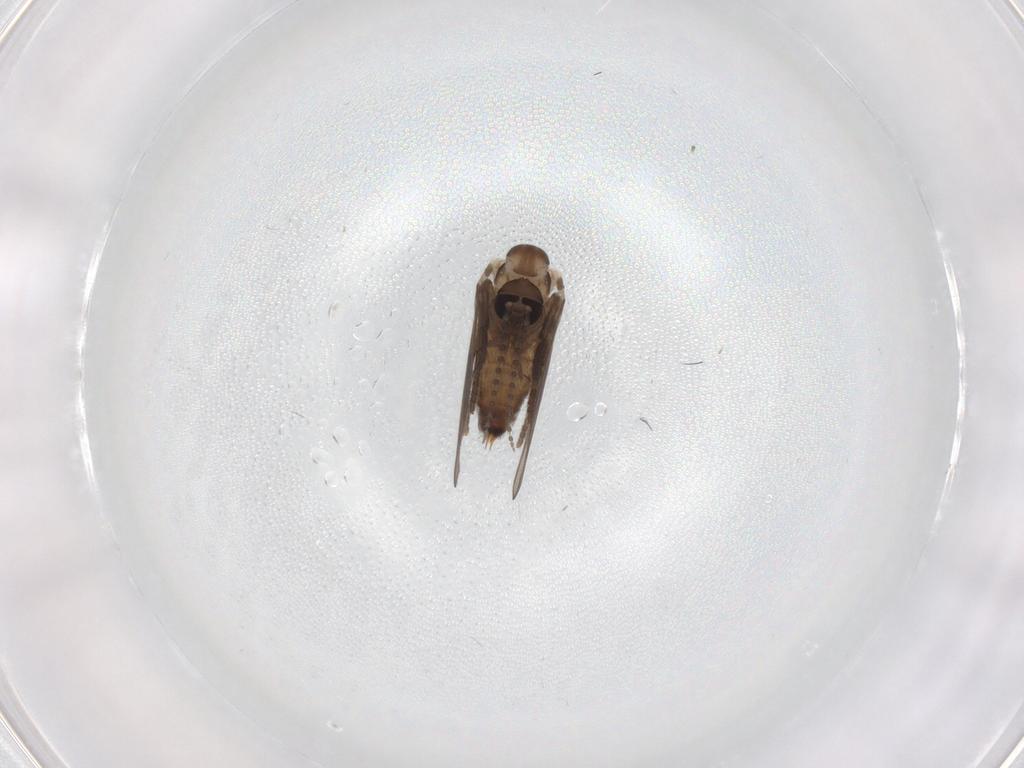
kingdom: Animalia
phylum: Arthropoda
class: Insecta
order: Diptera
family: Psychodidae
